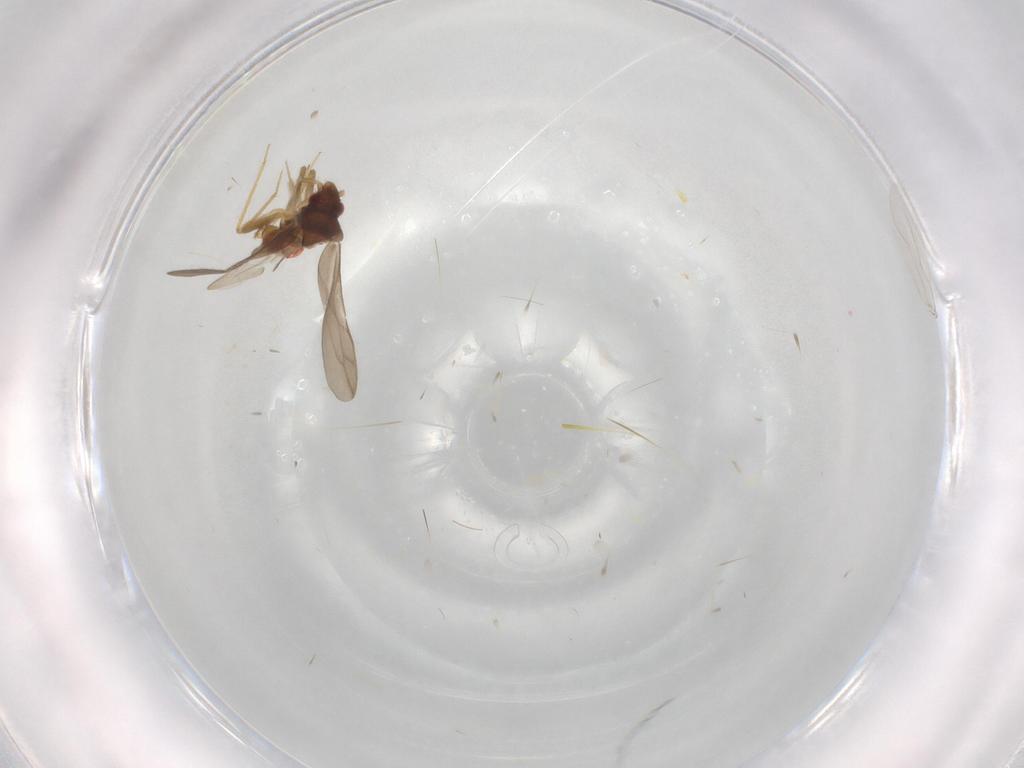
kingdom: Animalia
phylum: Arthropoda
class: Insecta
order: Hemiptera
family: Ceratocombidae
